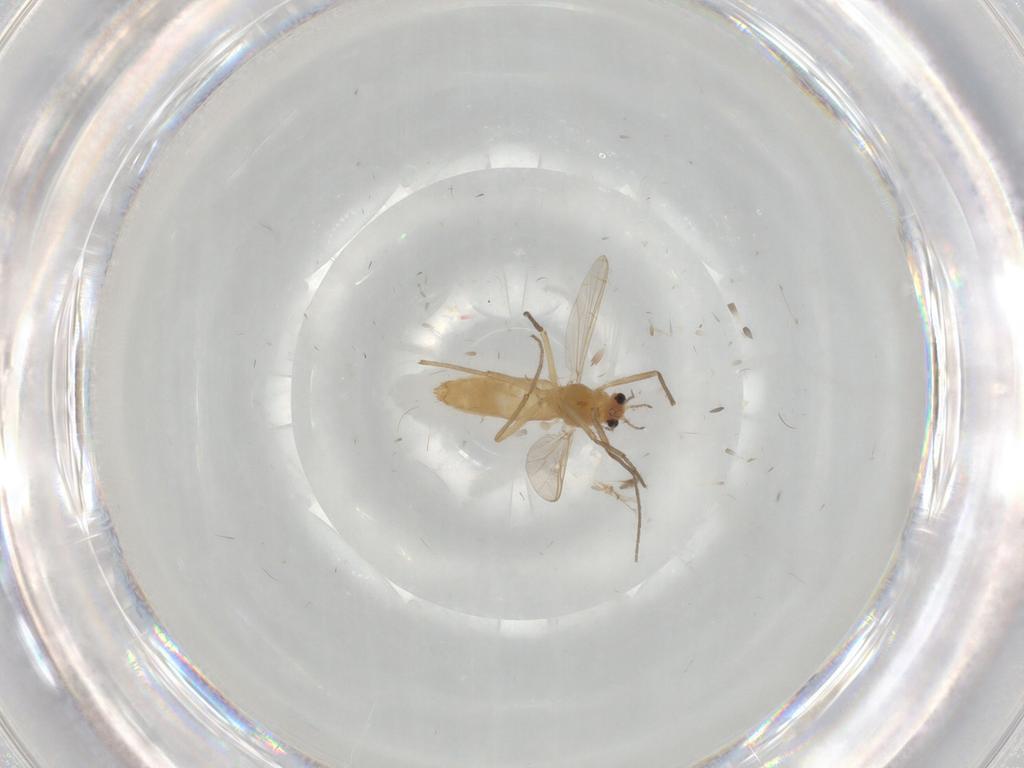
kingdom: Animalia
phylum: Arthropoda
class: Insecta
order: Diptera
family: Chironomidae
